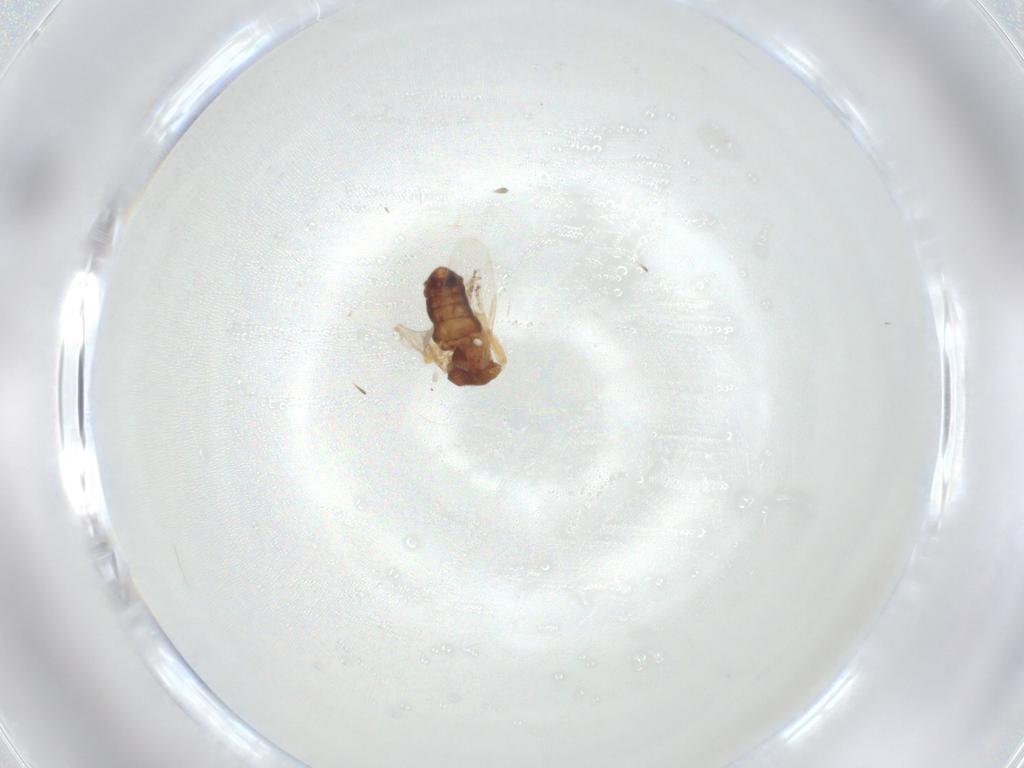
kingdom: Animalia
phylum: Arthropoda
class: Insecta
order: Diptera
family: Ceratopogonidae
